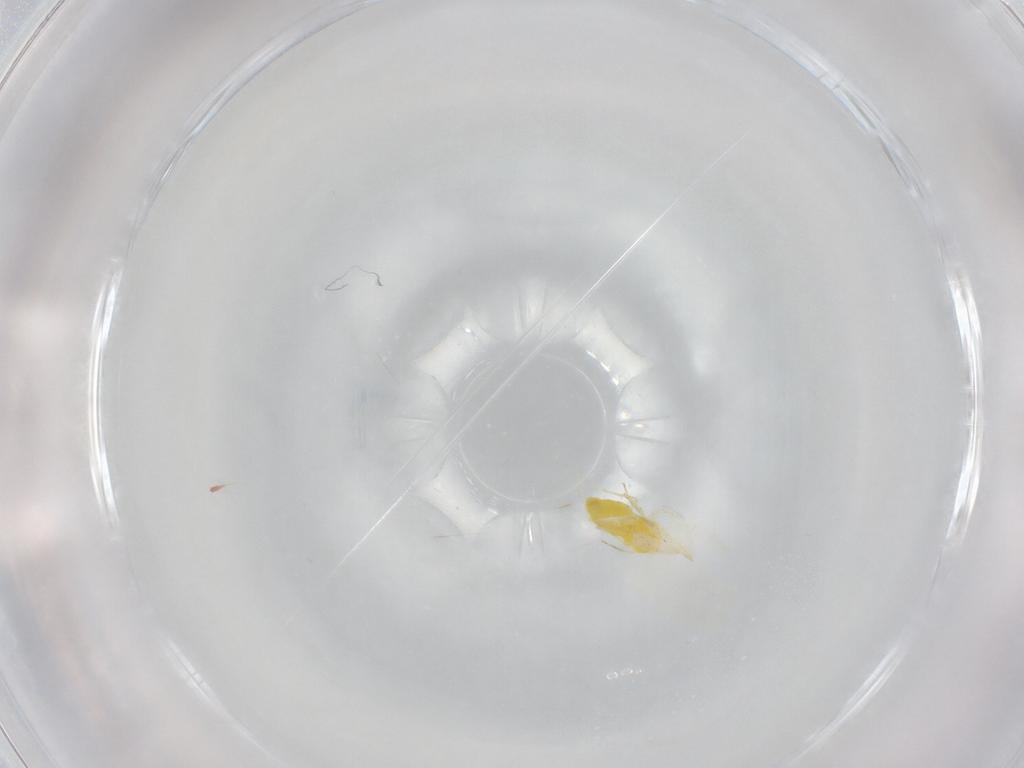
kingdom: Animalia
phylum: Arthropoda
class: Insecta
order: Hemiptera
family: Aleyrodidae
